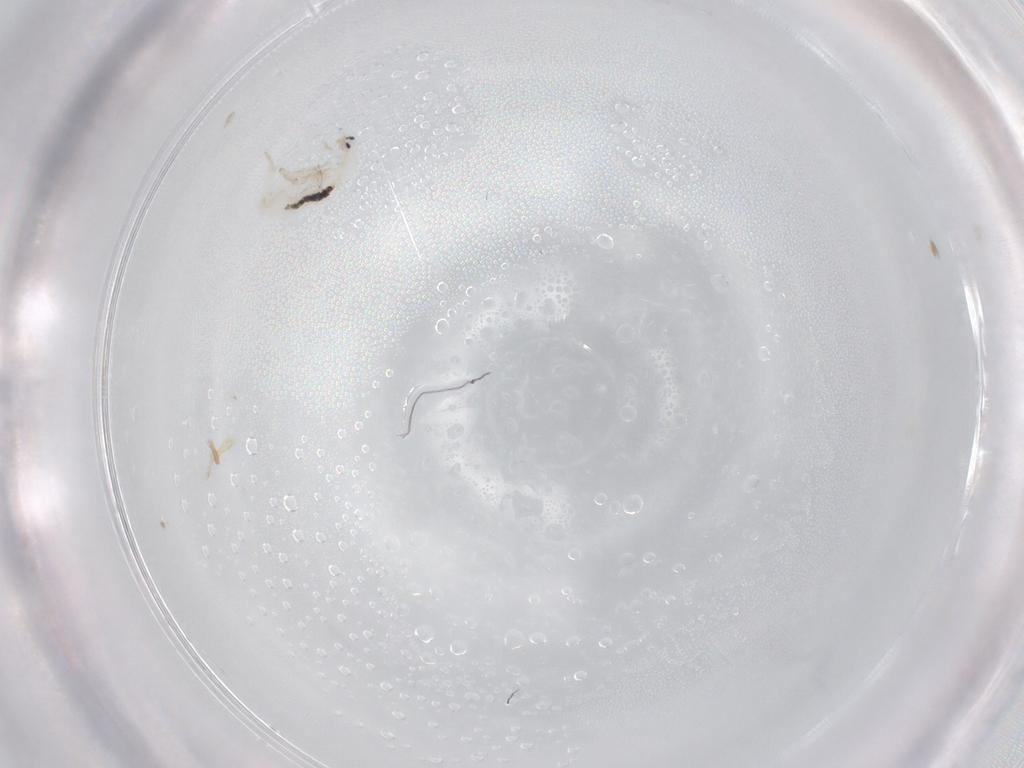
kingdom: Animalia
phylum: Arthropoda
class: Collembola
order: Entomobryomorpha
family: Entomobryidae
